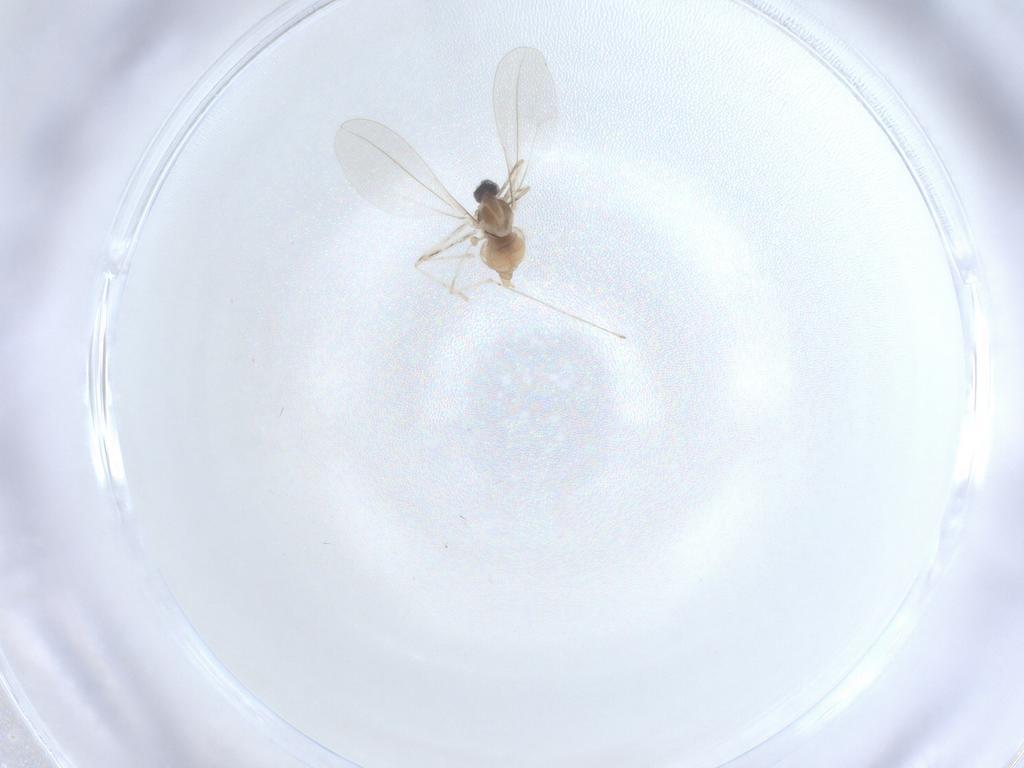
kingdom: Animalia
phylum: Arthropoda
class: Insecta
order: Diptera
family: Cecidomyiidae
